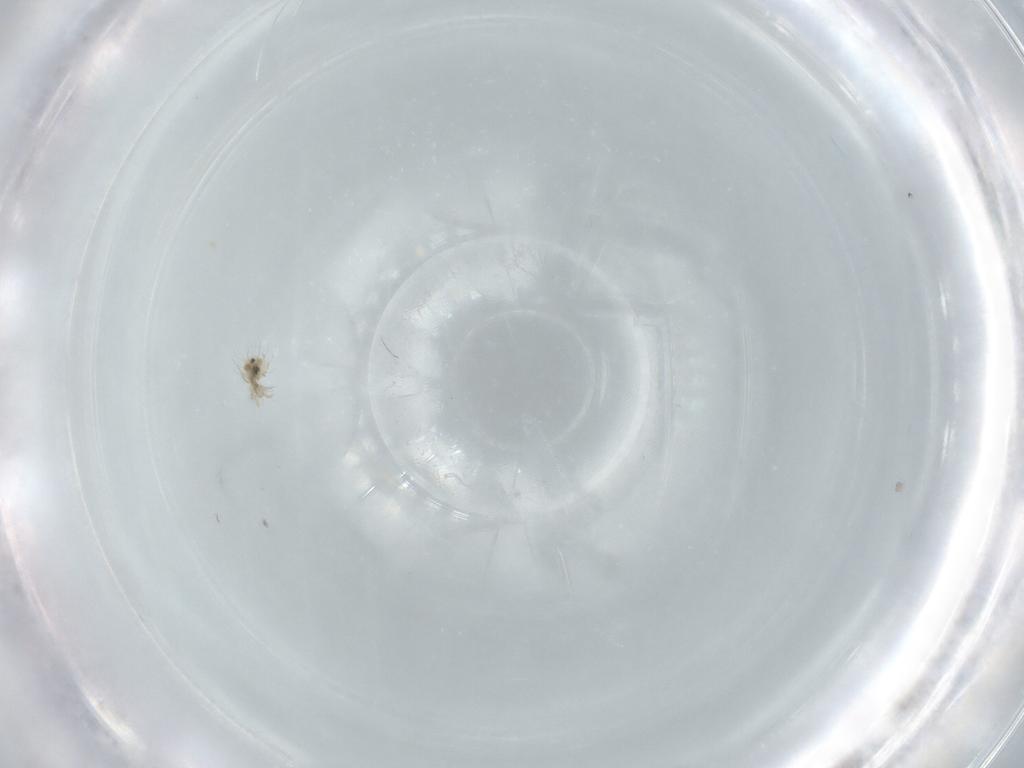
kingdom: Animalia
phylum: Arthropoda
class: Arachnida
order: Sarcoptiformes
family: Mochlozetidae
